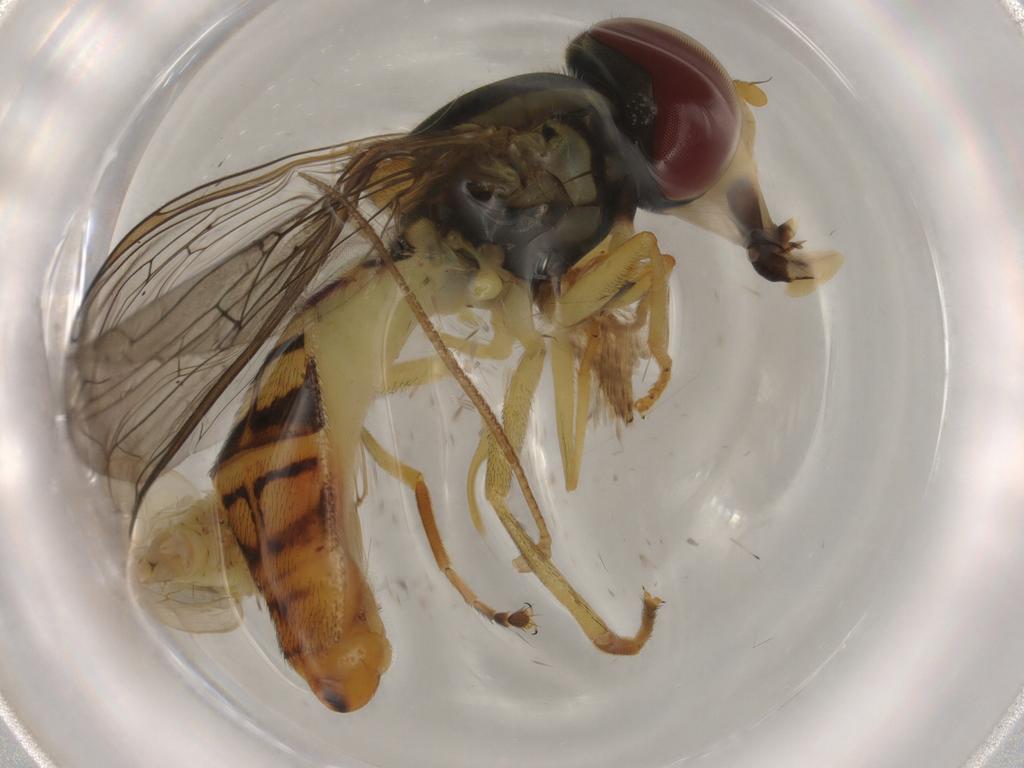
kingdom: Animalia
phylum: Arthropoda
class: Insecta
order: Diptera
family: Syrphidae
